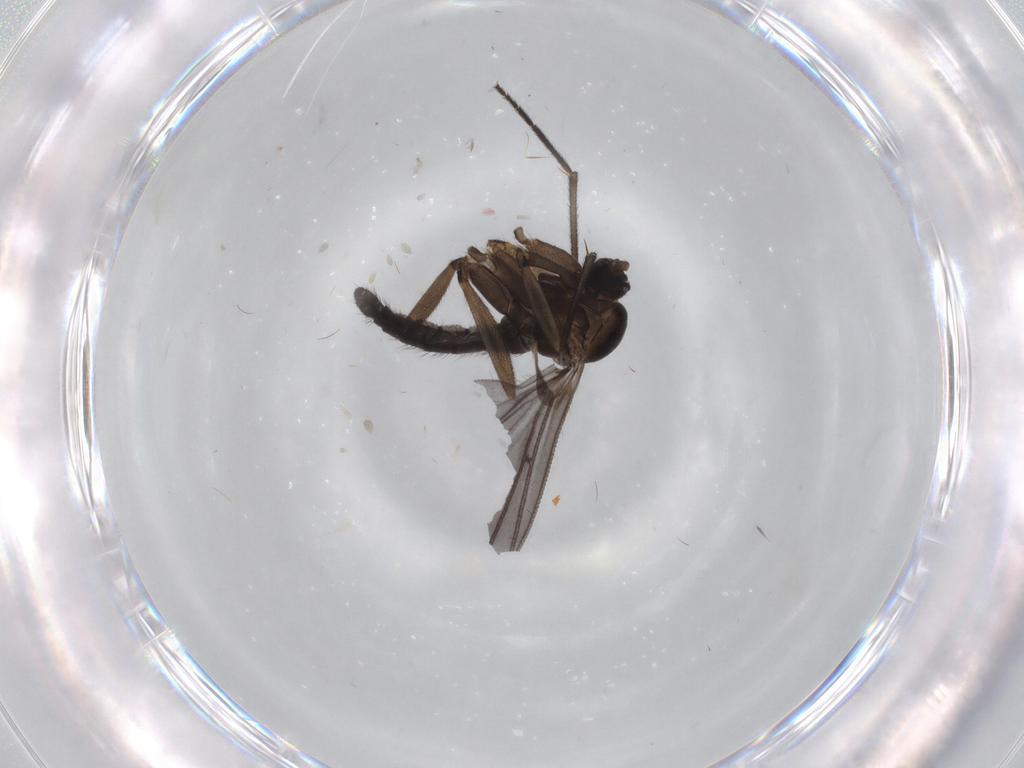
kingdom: Animalia
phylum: Arthropoda
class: Insecta
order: Diptera
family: Sciaridae
